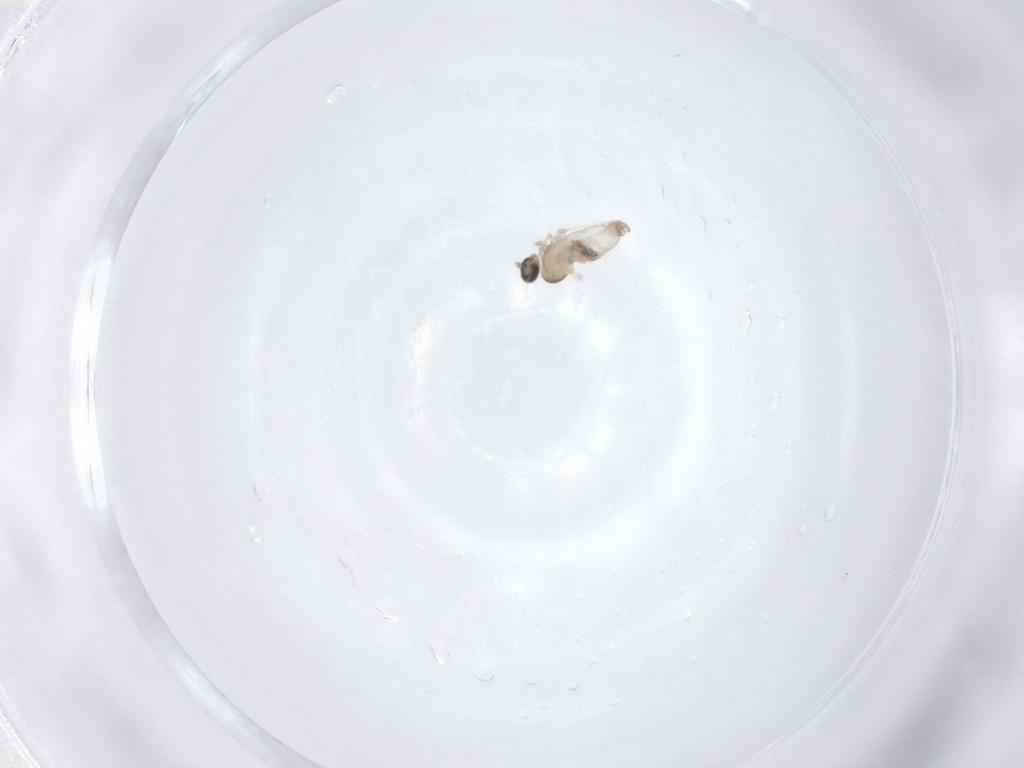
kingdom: Animalia
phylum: Arthropoda
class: Insecta
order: Diptera
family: Cecidomyiidae
